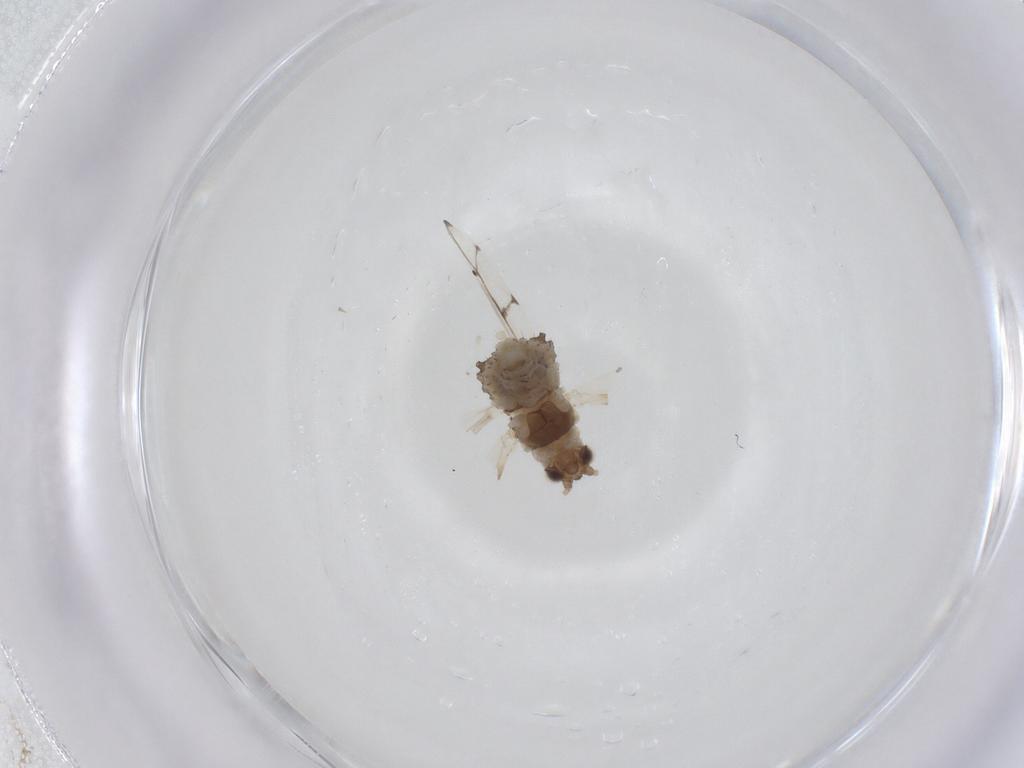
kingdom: Animalia
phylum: Arthropoda
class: Insecta
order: Hemiptera
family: Aphididae
